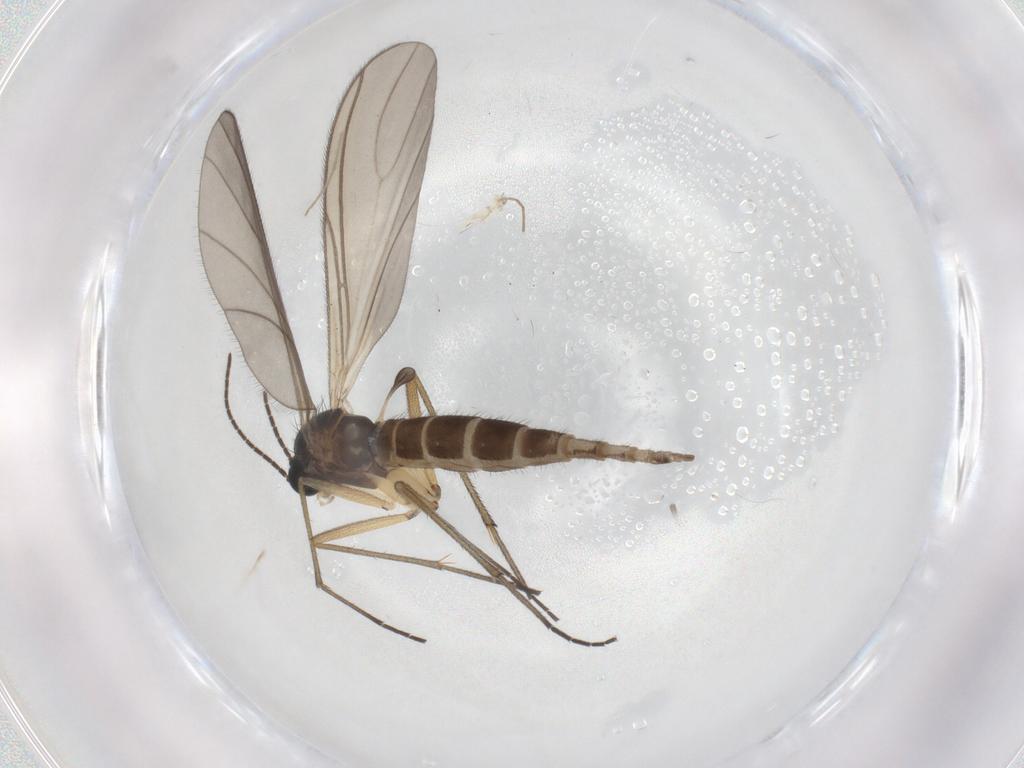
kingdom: Animalia
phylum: Arthropoda
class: Insecta
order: Diptera
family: Sciaridae
